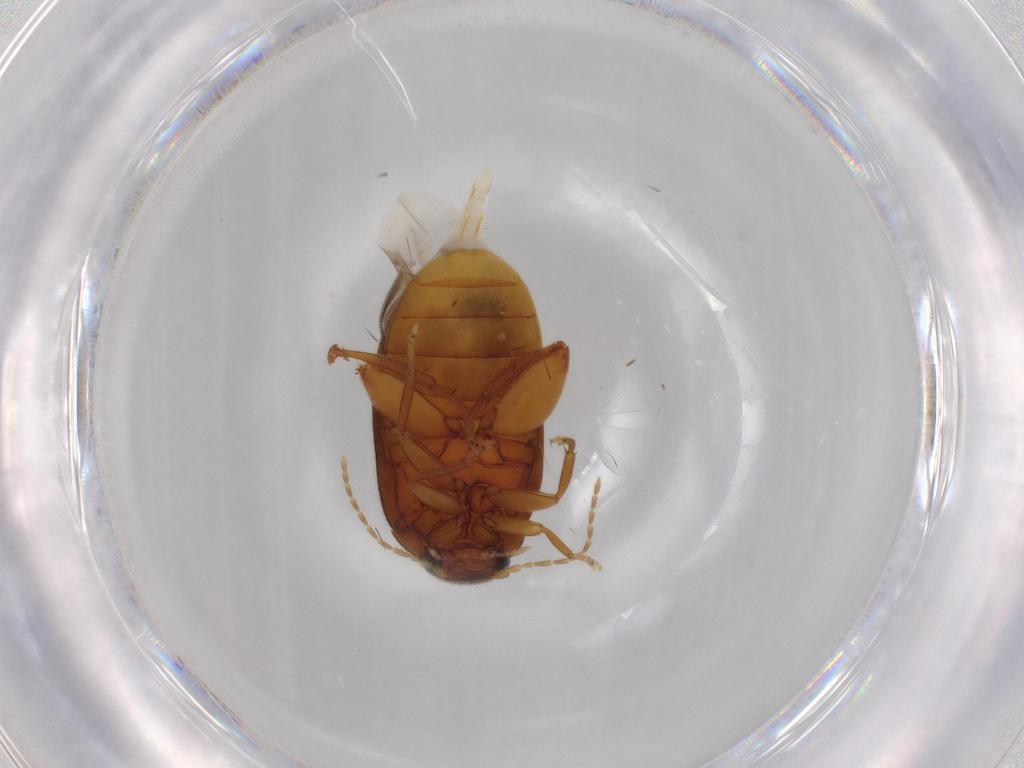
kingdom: Animalia
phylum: Arthropoda
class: Insecta
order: Coleoptera
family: Scirtidae
